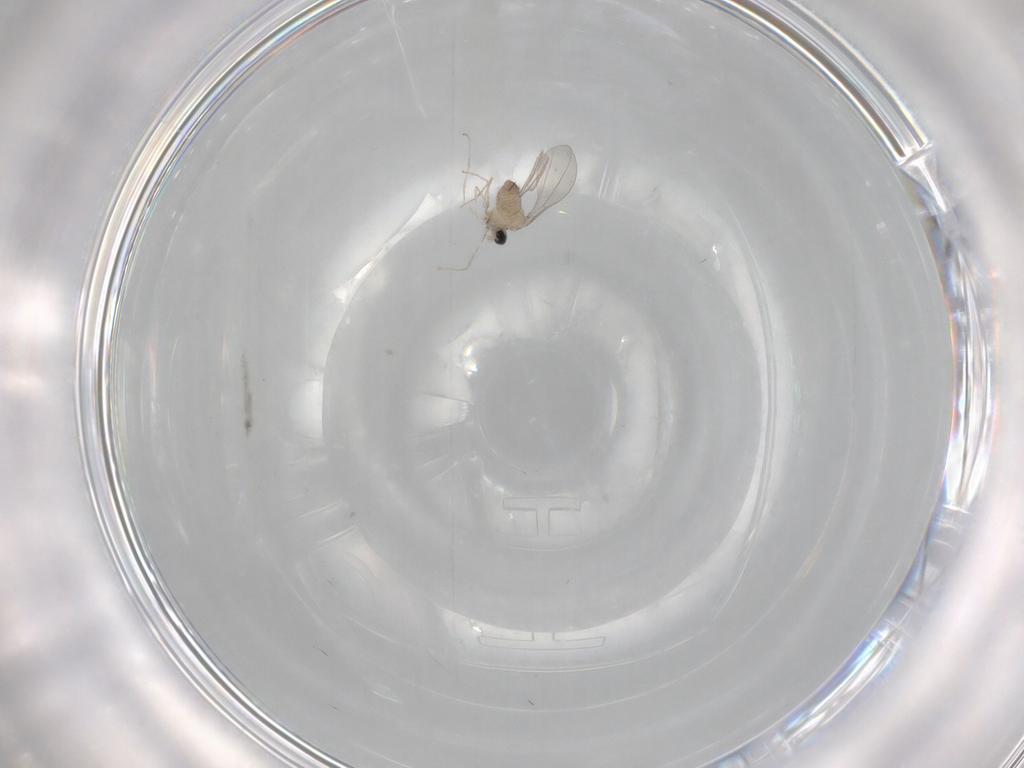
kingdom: Animalia
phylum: Arthropoda
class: Insecta
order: Diptera
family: Cecidomyiidae
